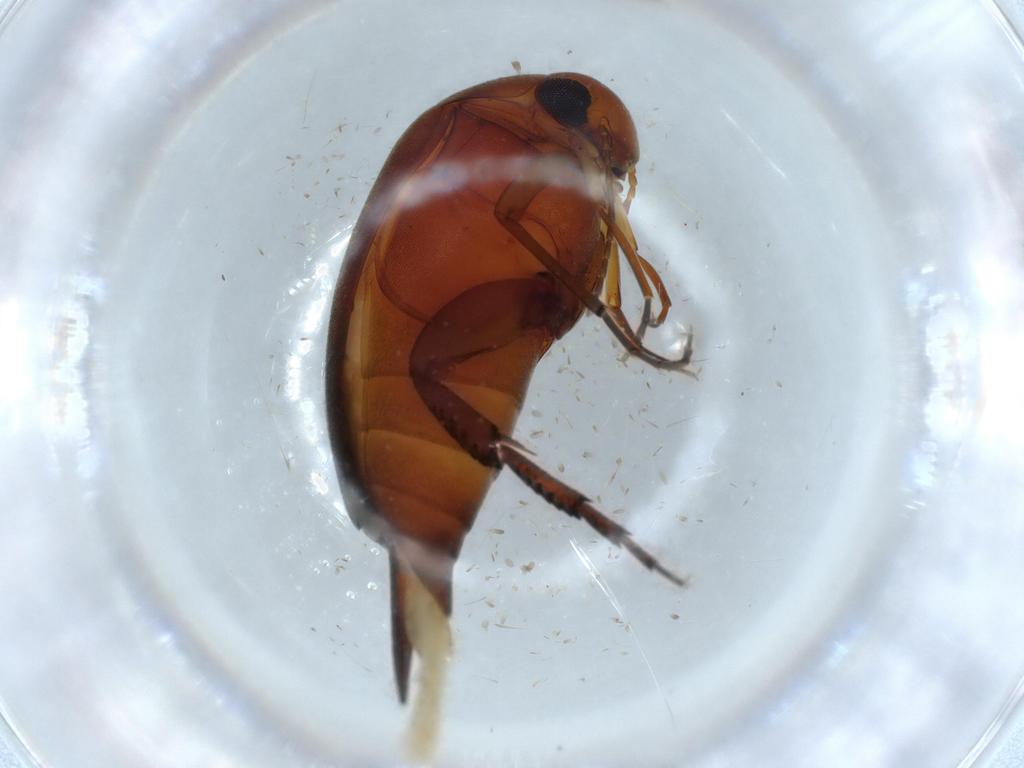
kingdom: Animalia
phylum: Arthropoda
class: Insecta
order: Coleoptera
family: Mordellidae
